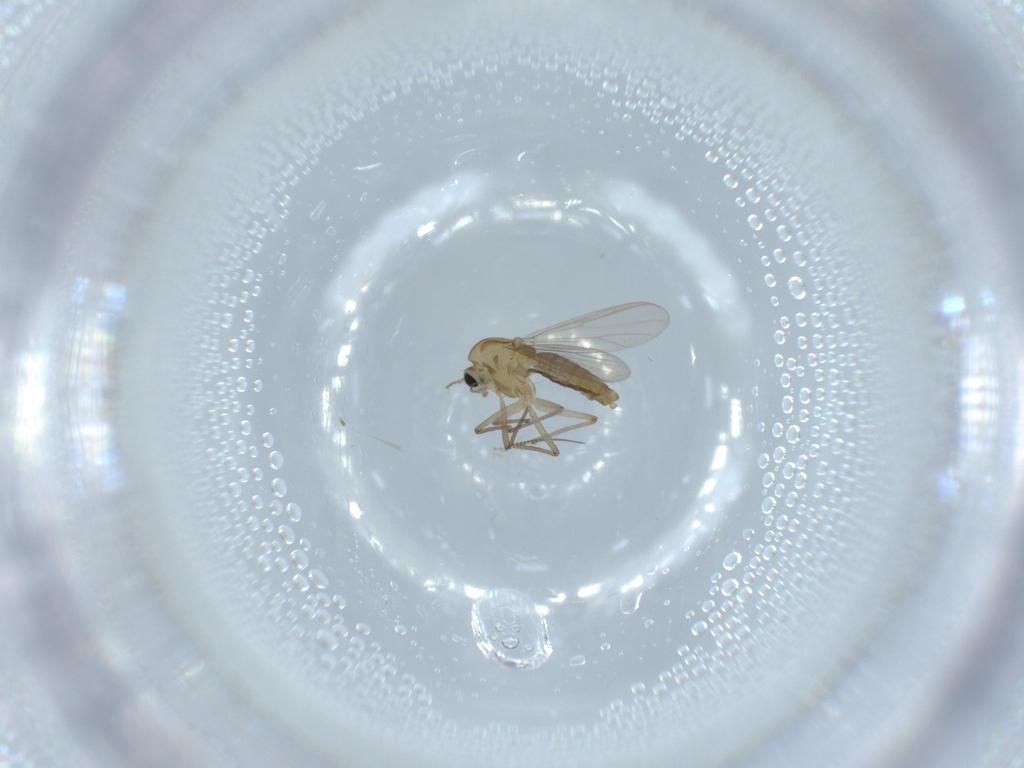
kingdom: Animalia
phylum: Arthropoda
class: Insecta
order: Diptera
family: Chironomidae
